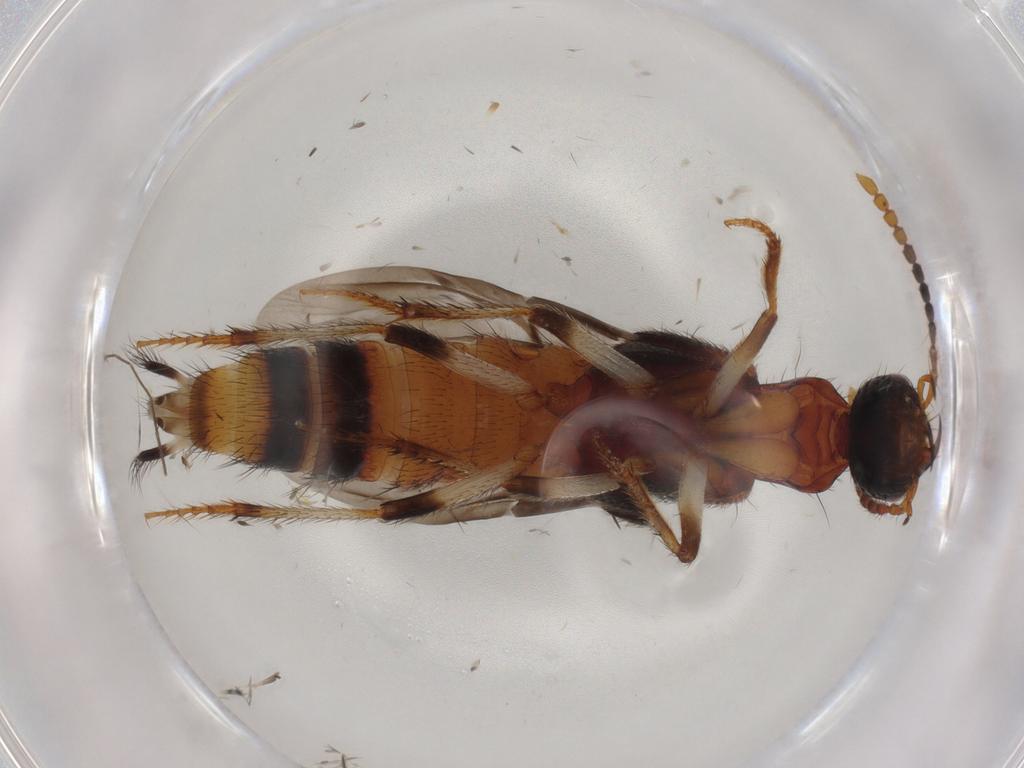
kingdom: Animalia
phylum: Arthropoda
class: Insecta
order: Coleoptera
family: Staphylinidae
